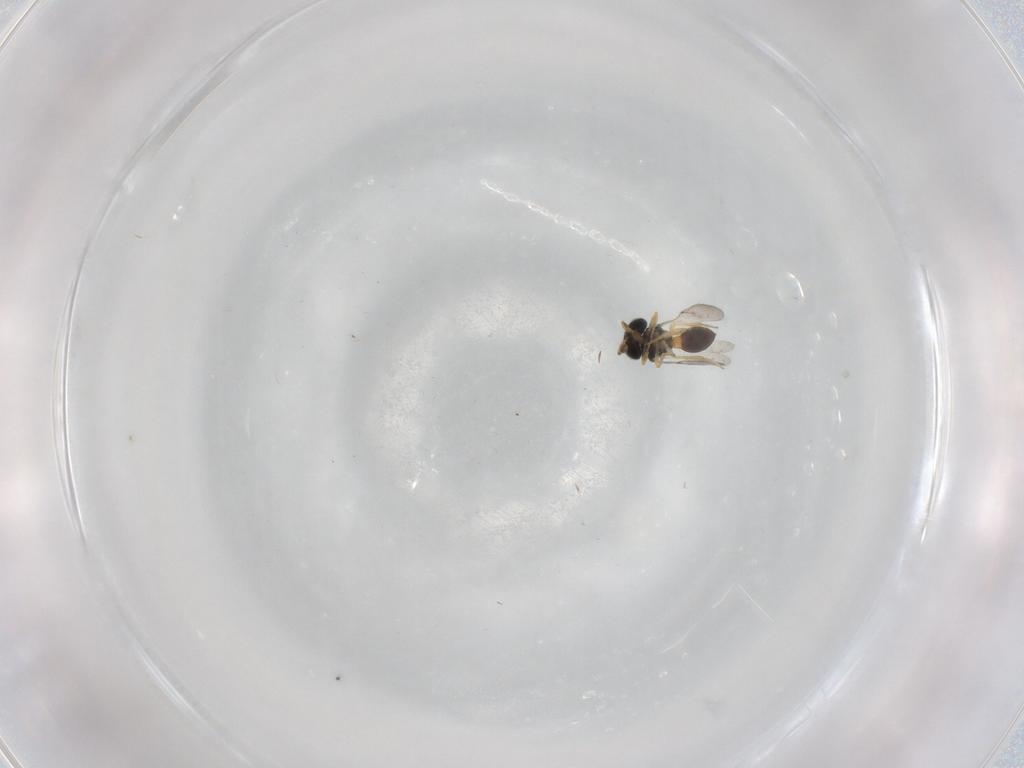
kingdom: Animalia
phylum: Arthropoda
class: Insecta
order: Hymenoptera
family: Scelionidae
